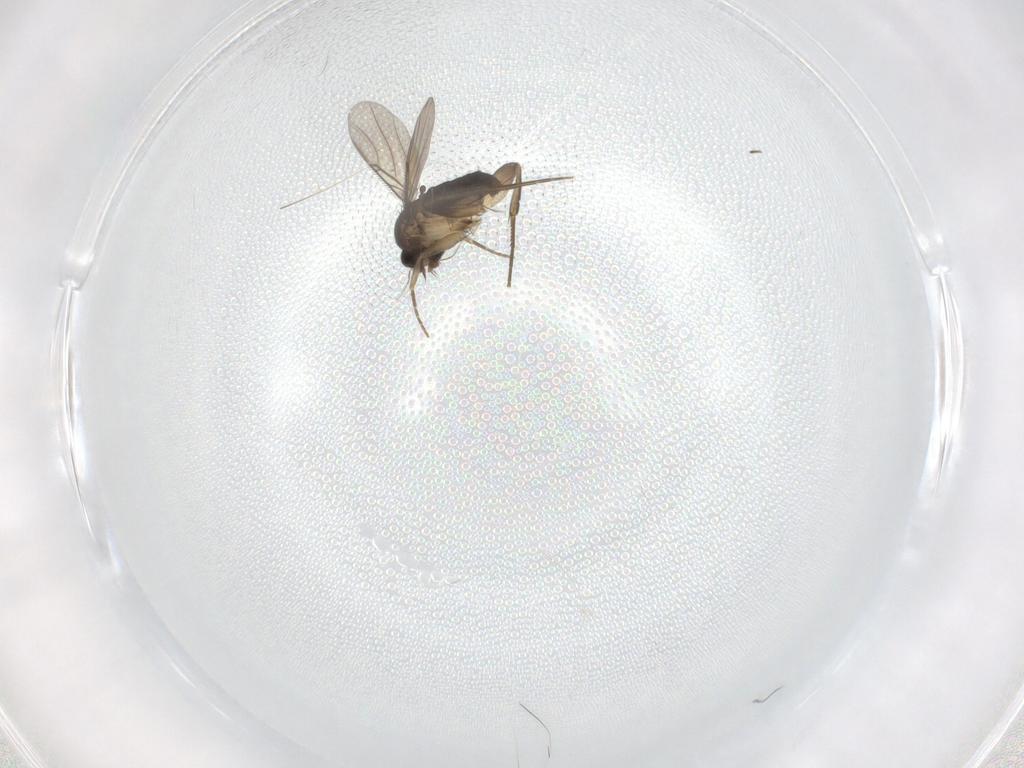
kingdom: Animalia
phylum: Arthropoda
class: Insecta
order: Diptera
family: Phoridae
